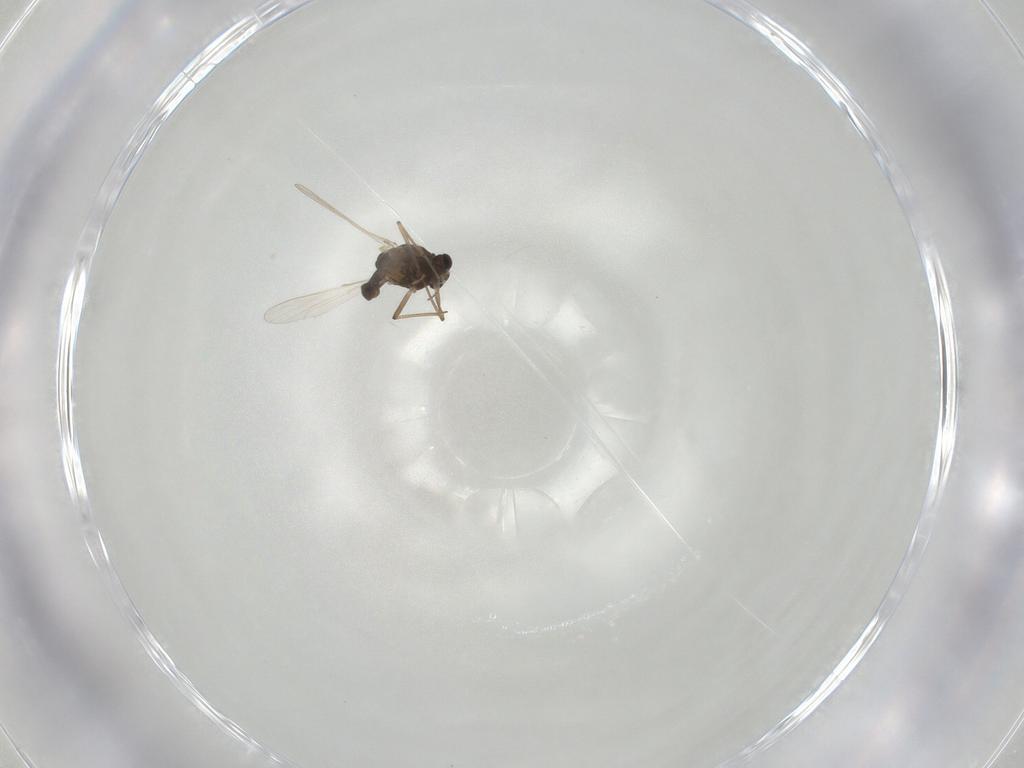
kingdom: Animalia
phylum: Arthropoda
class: Insecta
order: Diptera
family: Chironomidae
